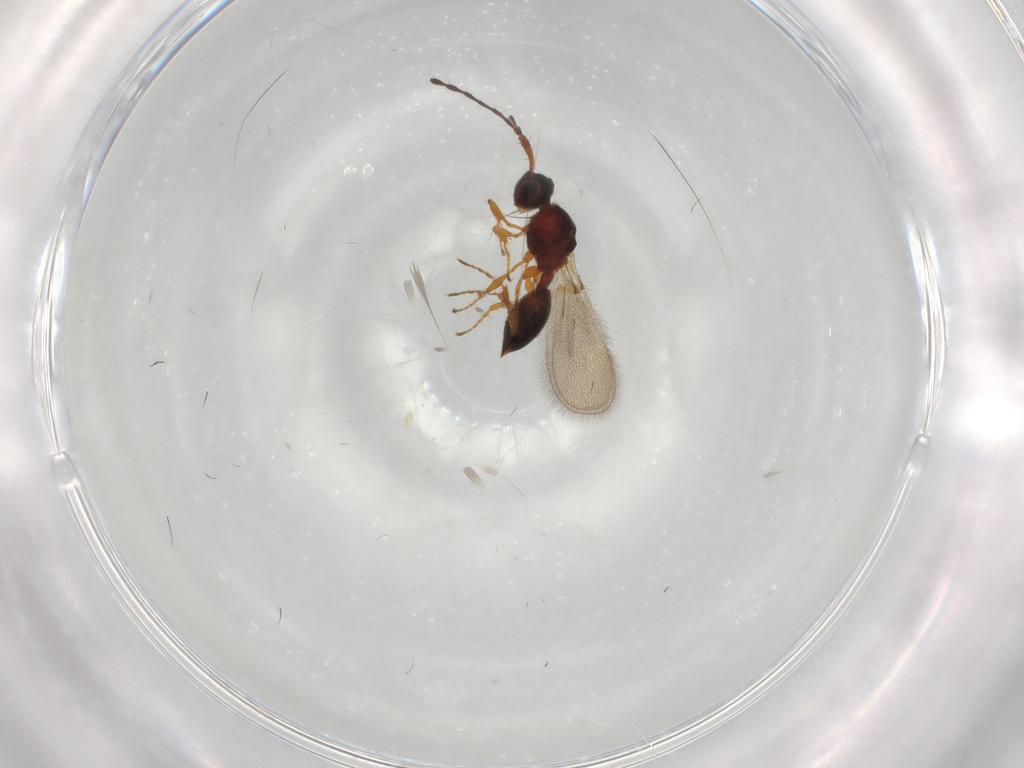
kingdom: Animalia
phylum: Arthropoda
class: Insecta
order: Hymenoptera
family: Diapriidae
